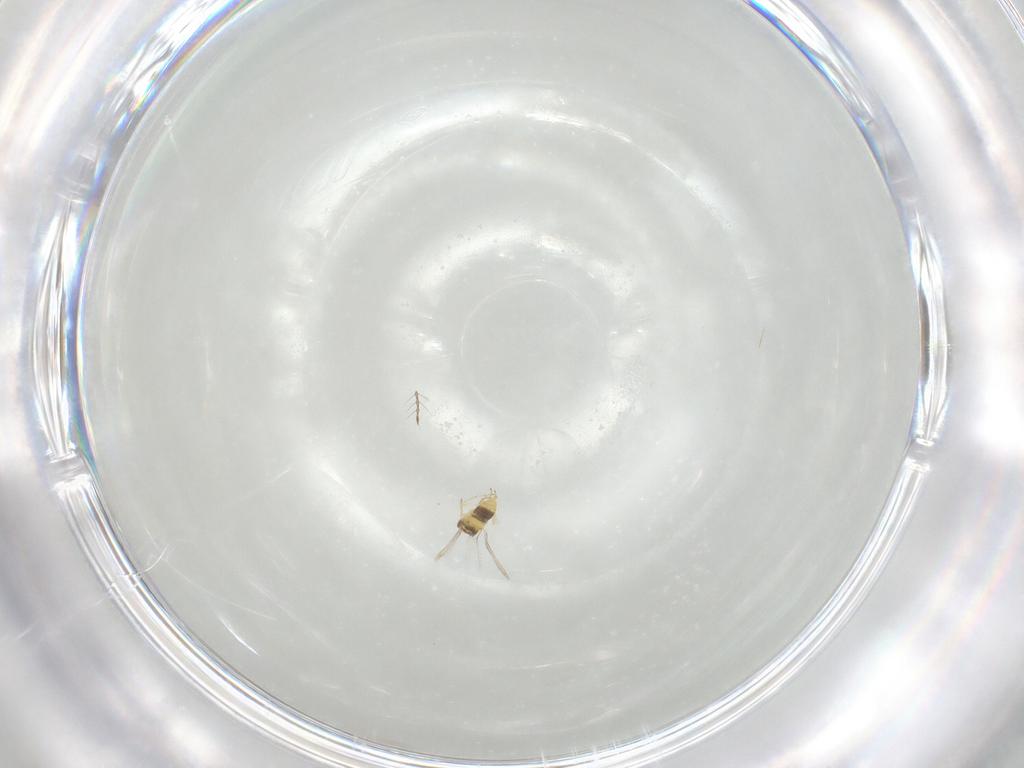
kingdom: Animalia
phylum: Arthropoda
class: Insecta
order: Hymenoptera
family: Aphelinidae
